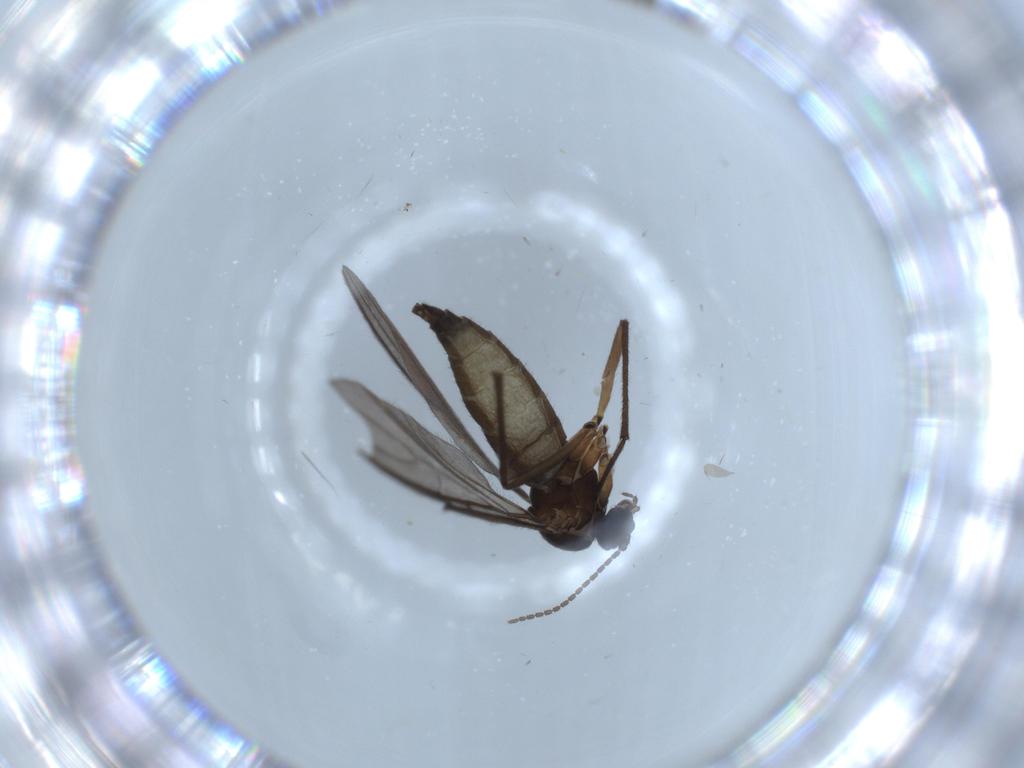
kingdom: Animalia
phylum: Arthropoda
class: Insecta
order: Diptera
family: Sciaridae
